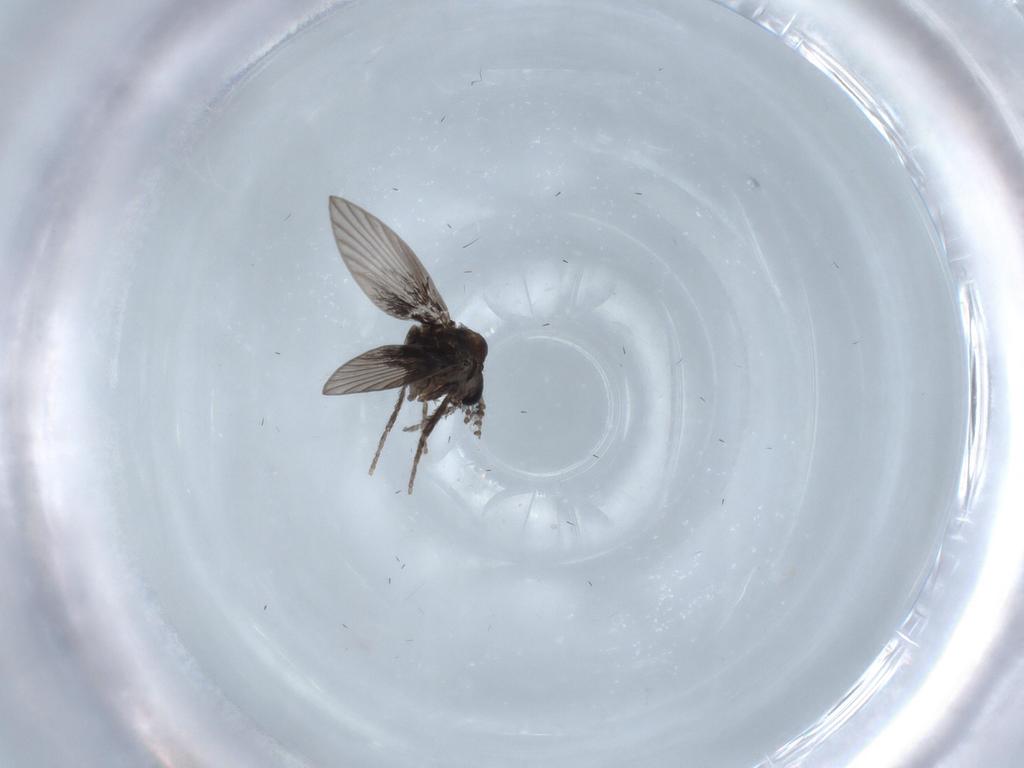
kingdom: Animalia
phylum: Arthropoda
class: Insecta
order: Diptera
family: Psychodidae
